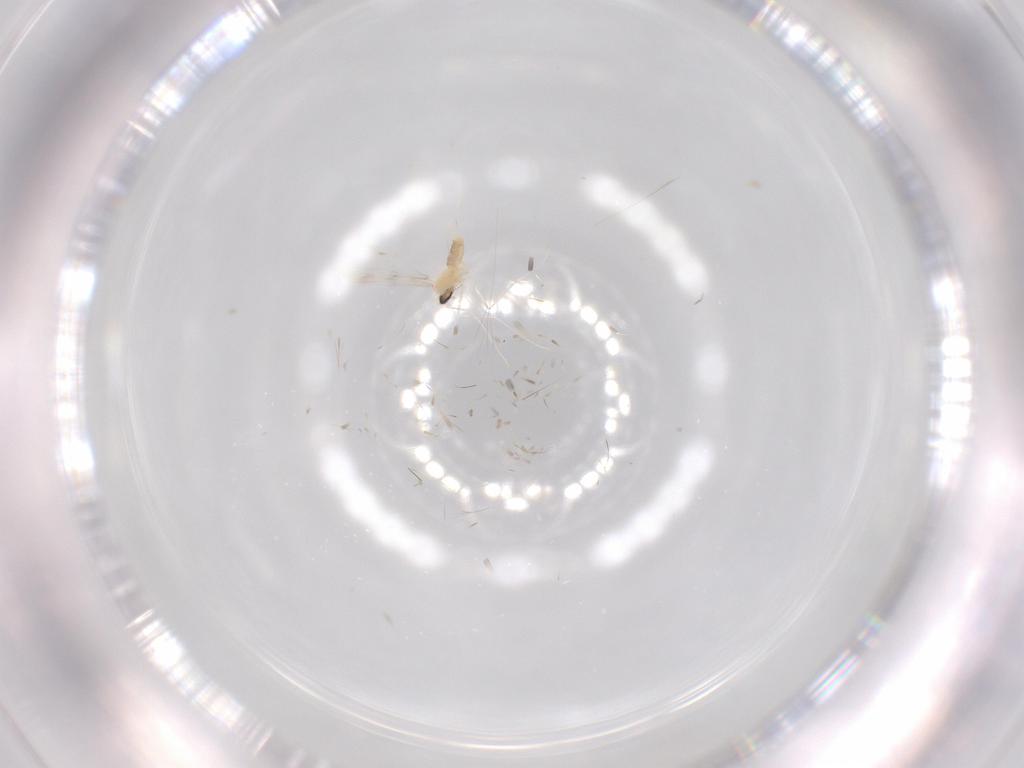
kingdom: Animalia
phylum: Arthropoda
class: Insecta
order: Diptera
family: Cecidomyiidae
